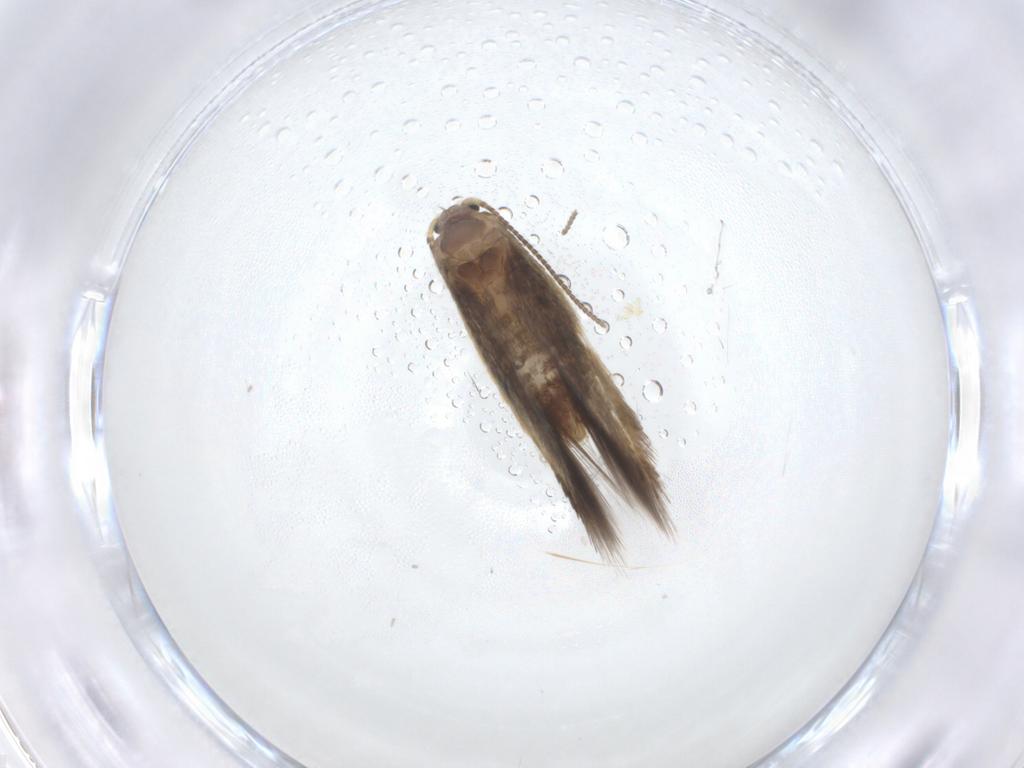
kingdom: Animalia
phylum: Arthropoda
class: Insecta
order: Lepidoptera
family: Nepticulidae
